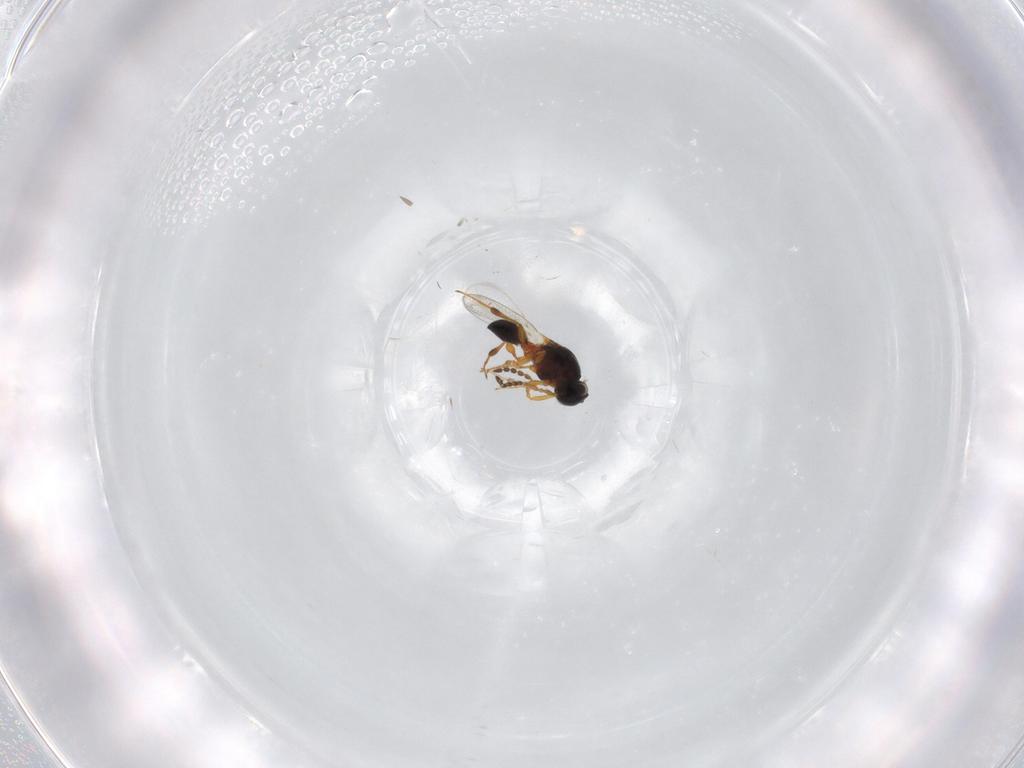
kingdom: Animalia
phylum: Arthropoda
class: Insecta
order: Hymenoptera
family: Platygastridae
